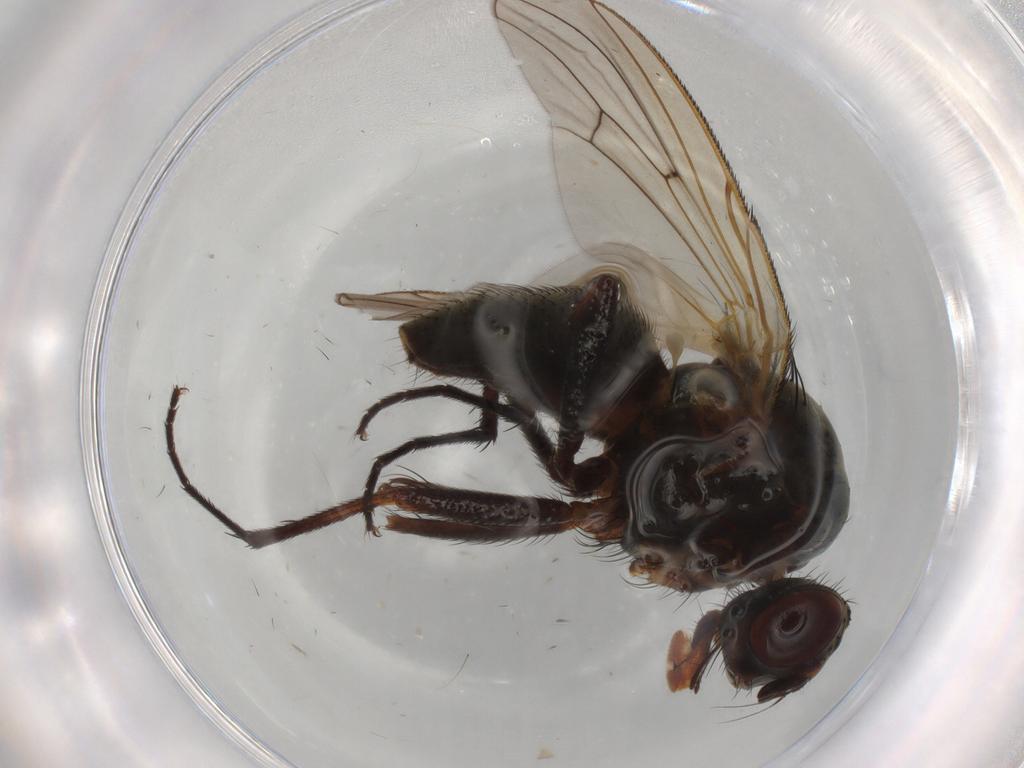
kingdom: Animalia
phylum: Arthropoda
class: Insecta
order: Diptera
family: Anthomyiidae
